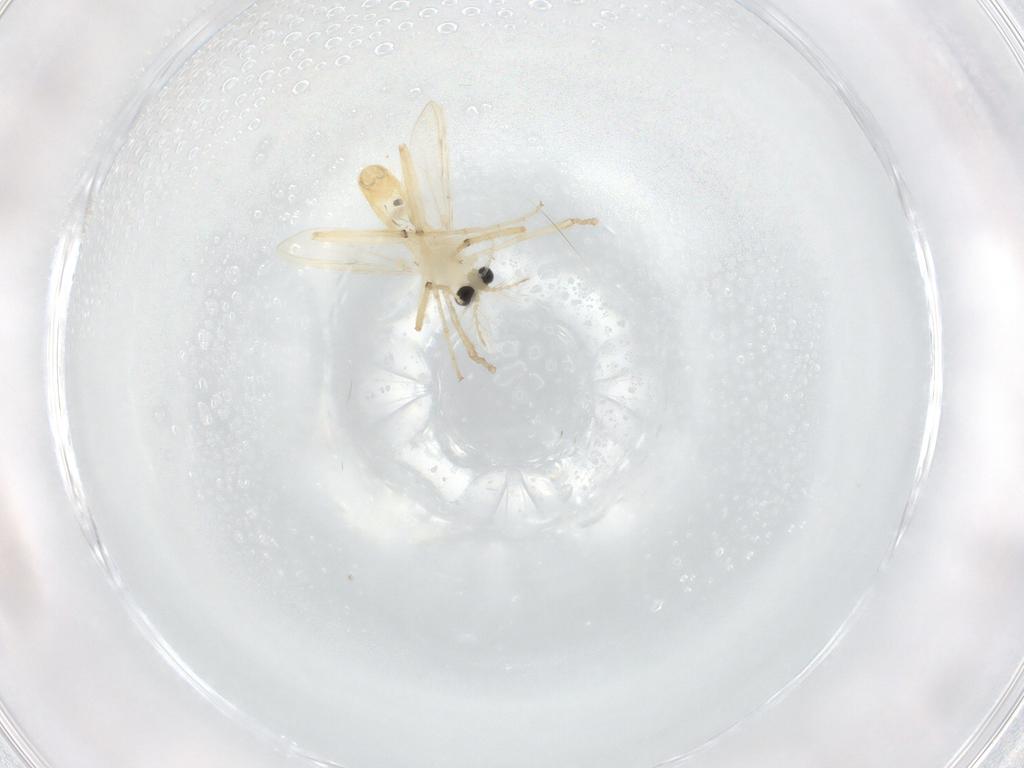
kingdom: Animalia
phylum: Arthropoda
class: Insecta
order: Diptera
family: Chironomidae
